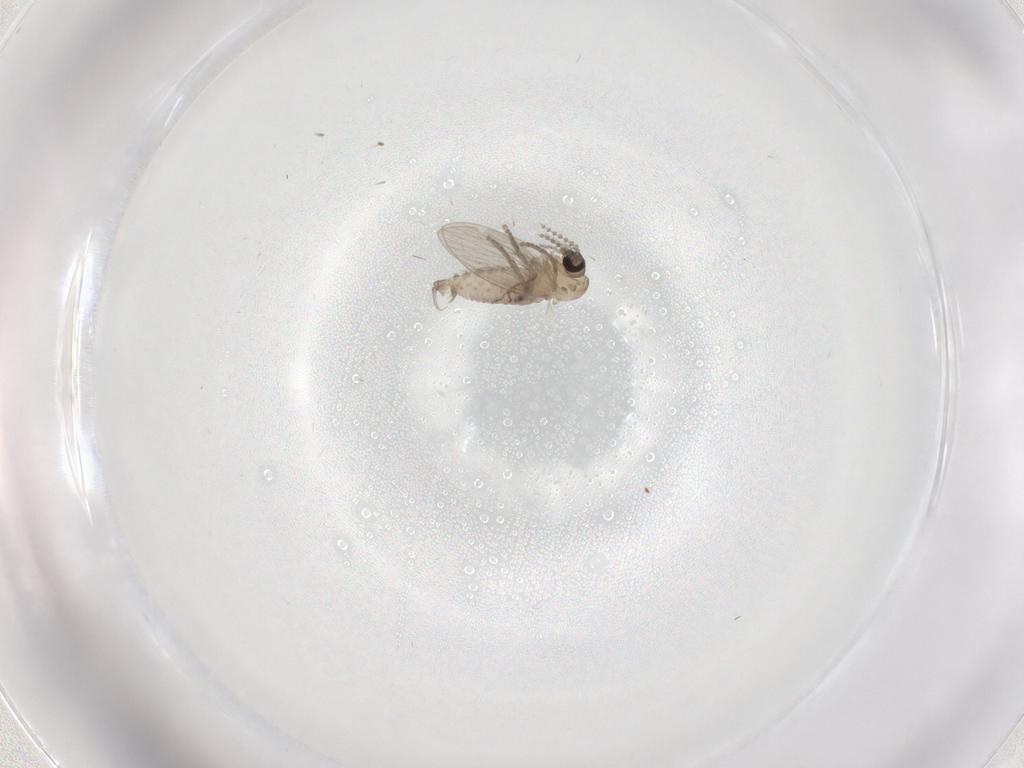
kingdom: Animalia
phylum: Arthropoda
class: Insecta
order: Diptera
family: Psychodidae
